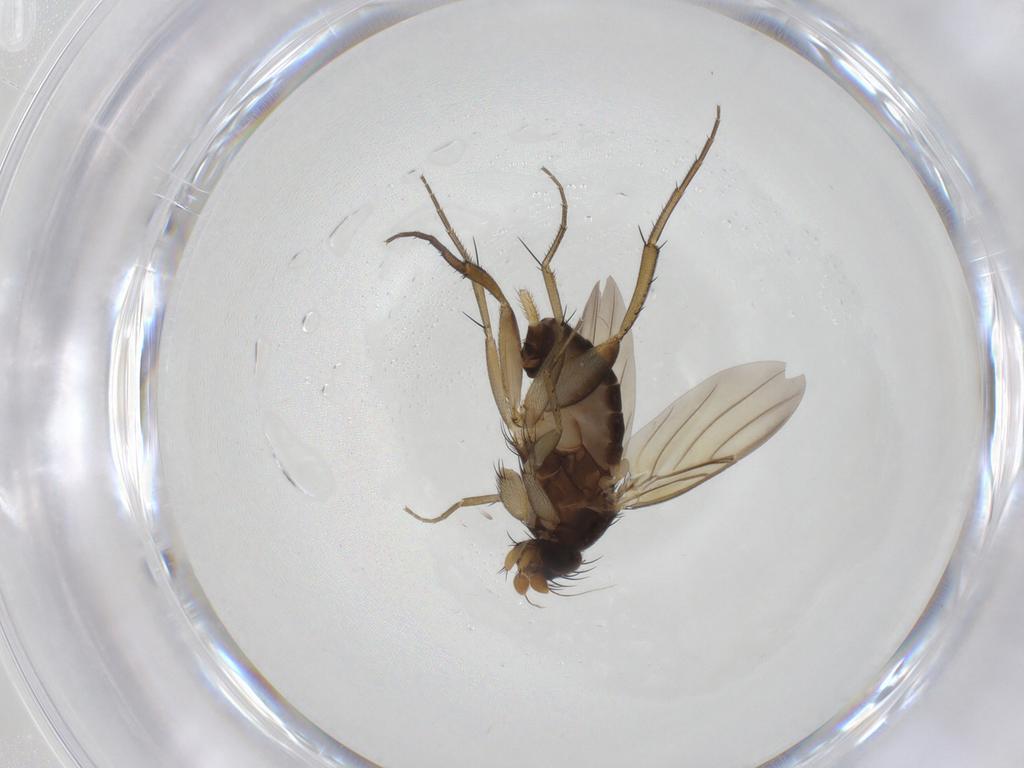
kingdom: Animalia
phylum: Arthropoda
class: Insecta
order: Diptera
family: Phoridae
